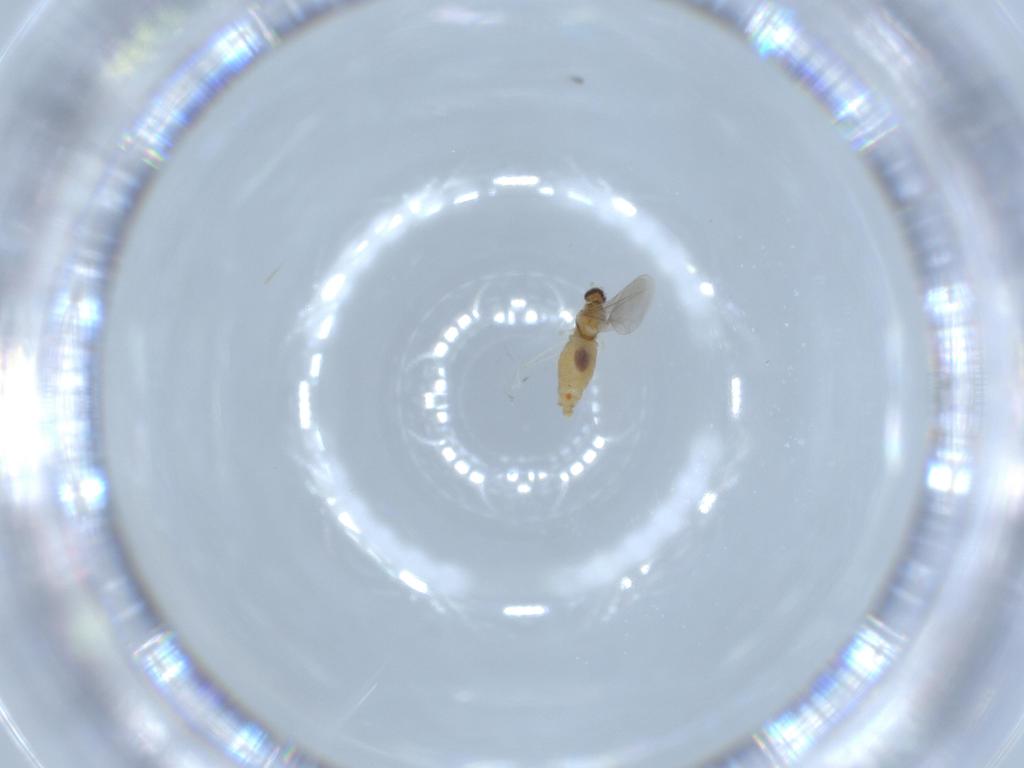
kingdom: Animalia
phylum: Arthropoda
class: Insecta
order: Diptera
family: Cecidomyiidae
